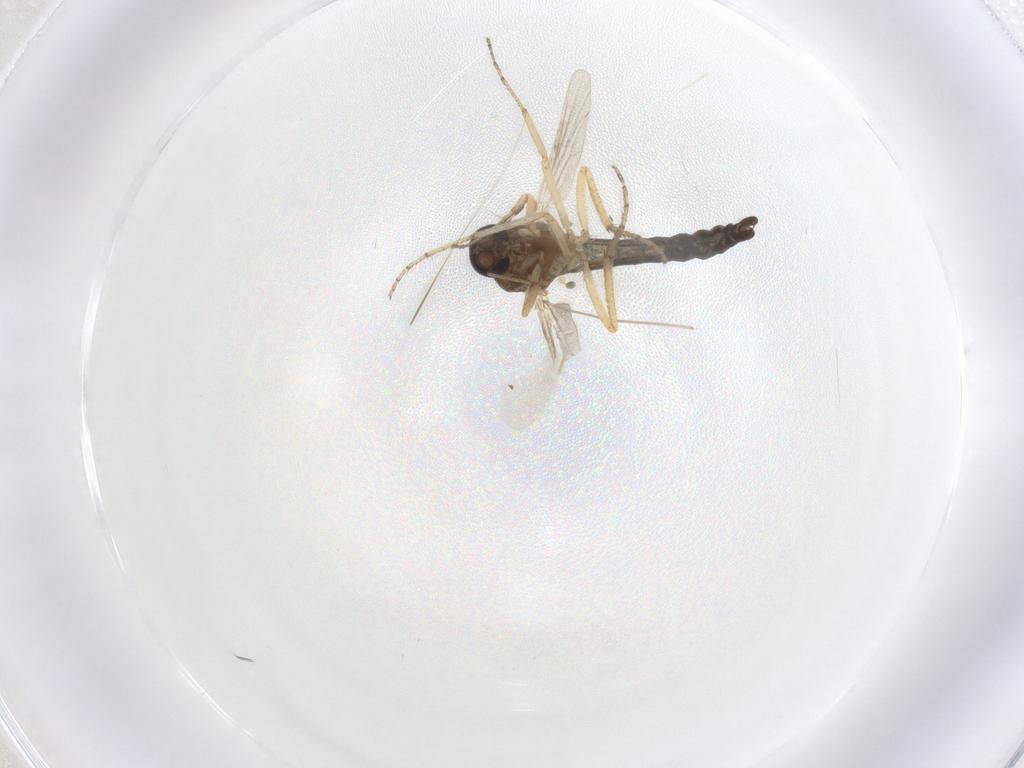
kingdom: Animalia
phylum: Arthropoda
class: Insecta
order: Diptera
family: Ceratopogonidae
